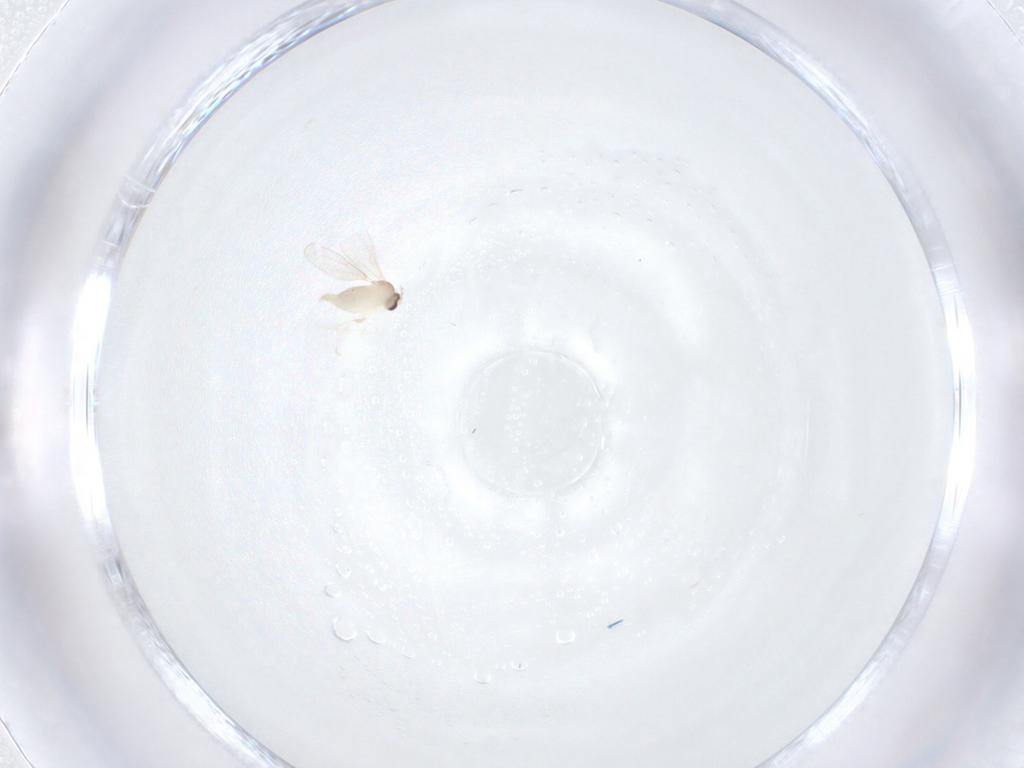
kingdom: Animalia
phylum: Arthropoda
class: Insecta
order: Diptera
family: Cecidomyiidae
